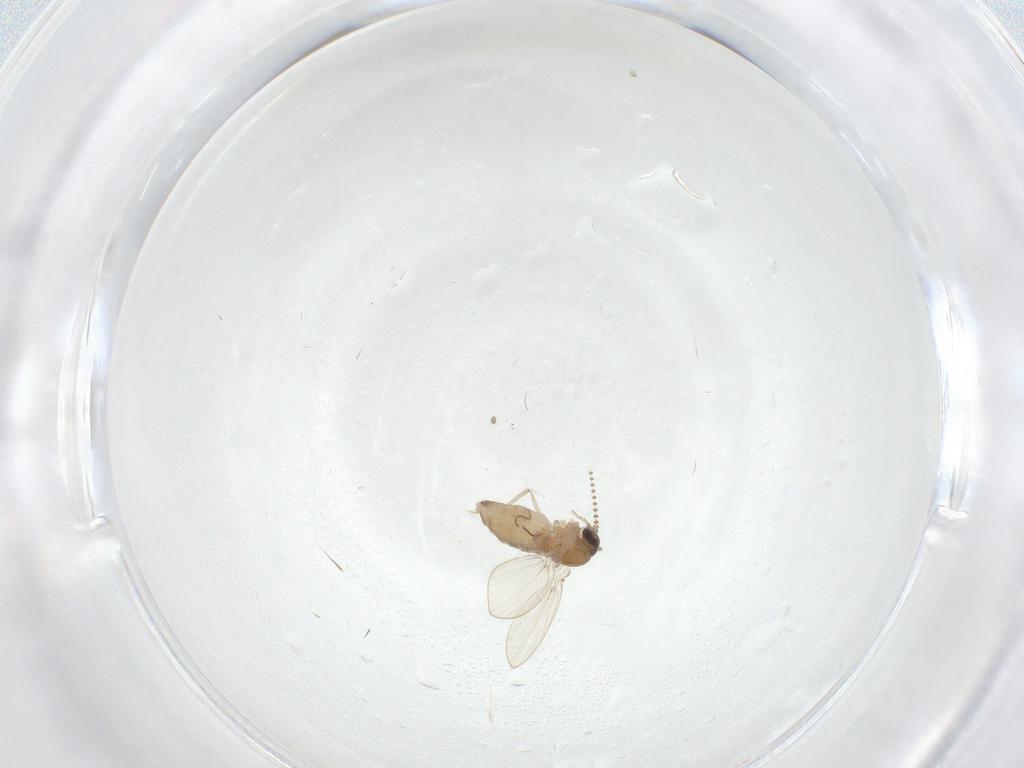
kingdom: Animalia
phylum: Arthropoda
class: Insecta
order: Diptera
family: Psychodidae
